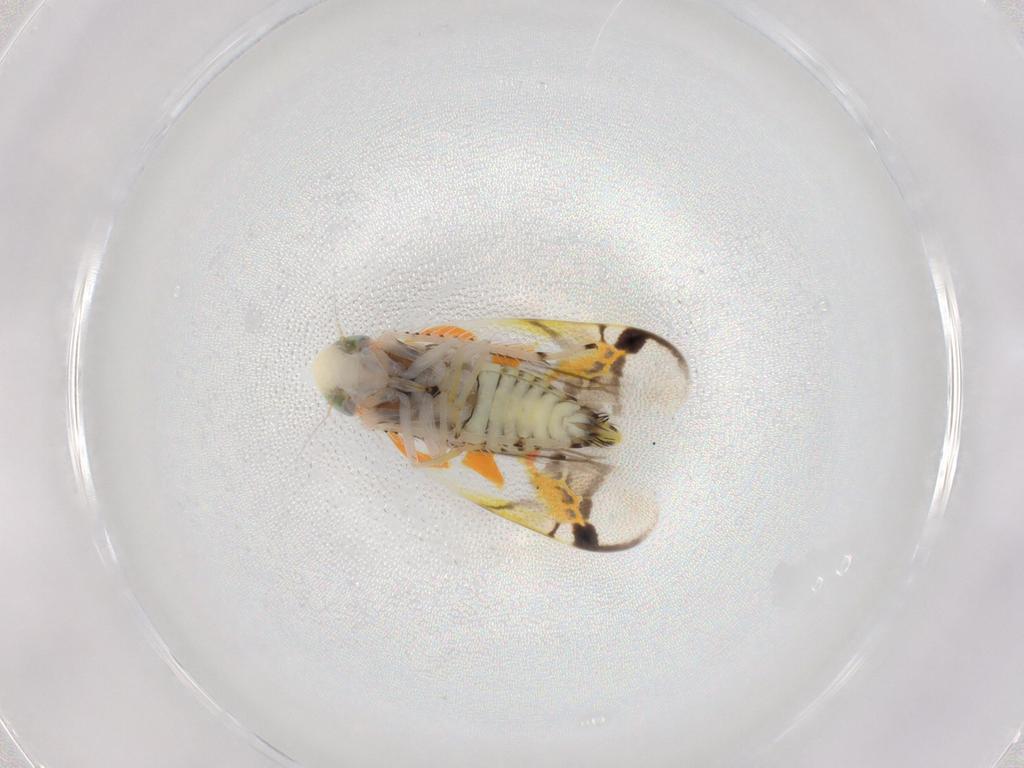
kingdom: Animalia
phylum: Arthropoda
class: Insecta
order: Hemiptera
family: Cicadellidae
